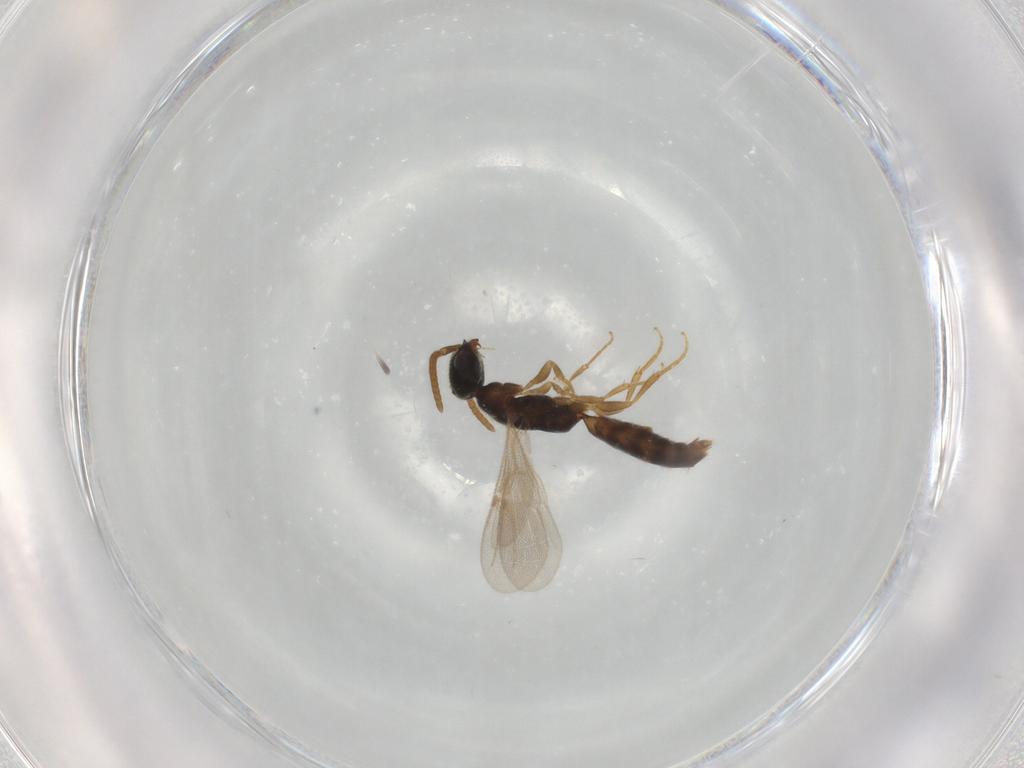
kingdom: Animalia
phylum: Arthropoda
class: Insecta
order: Hymenoptera
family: Bethylidae
